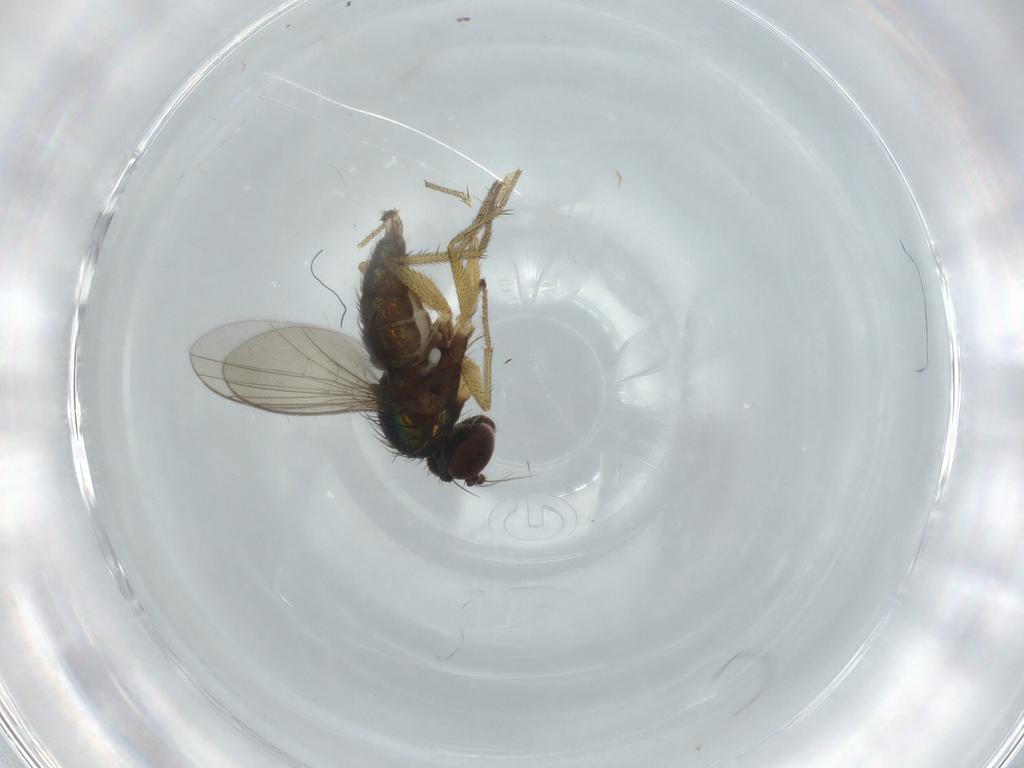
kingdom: Animalia
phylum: Arthropoda
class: Insecta
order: Diptera
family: Dolichopodidae
